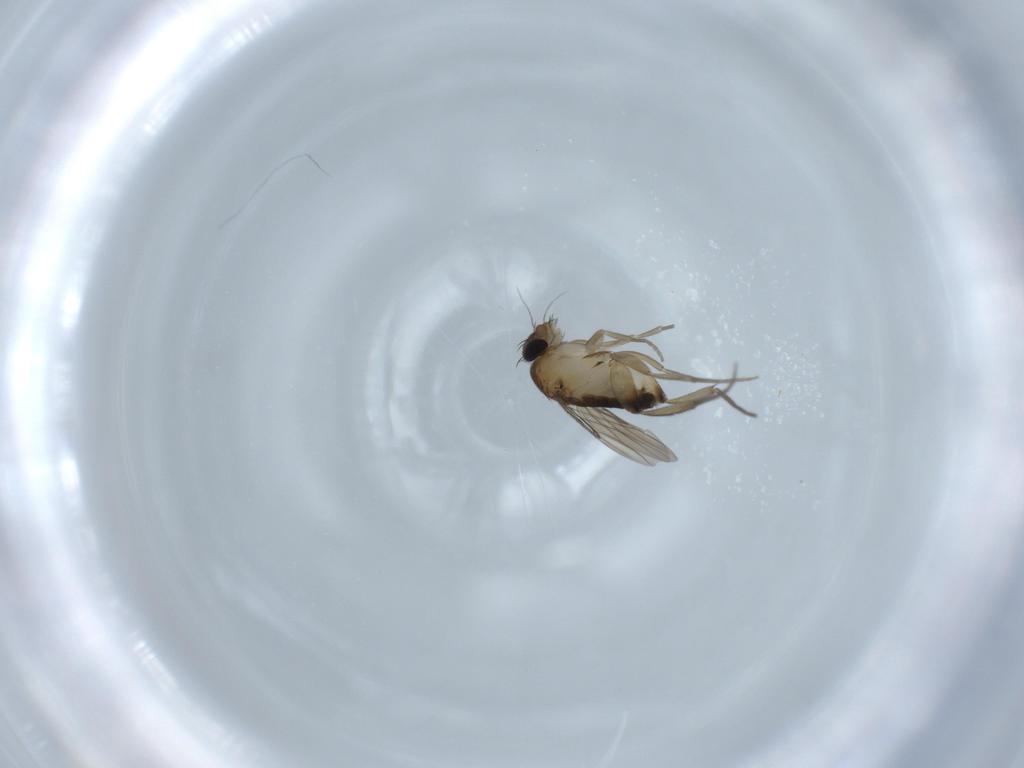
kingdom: Animalia
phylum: Arthropoda
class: Insecta
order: Diptera
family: Phoridae
